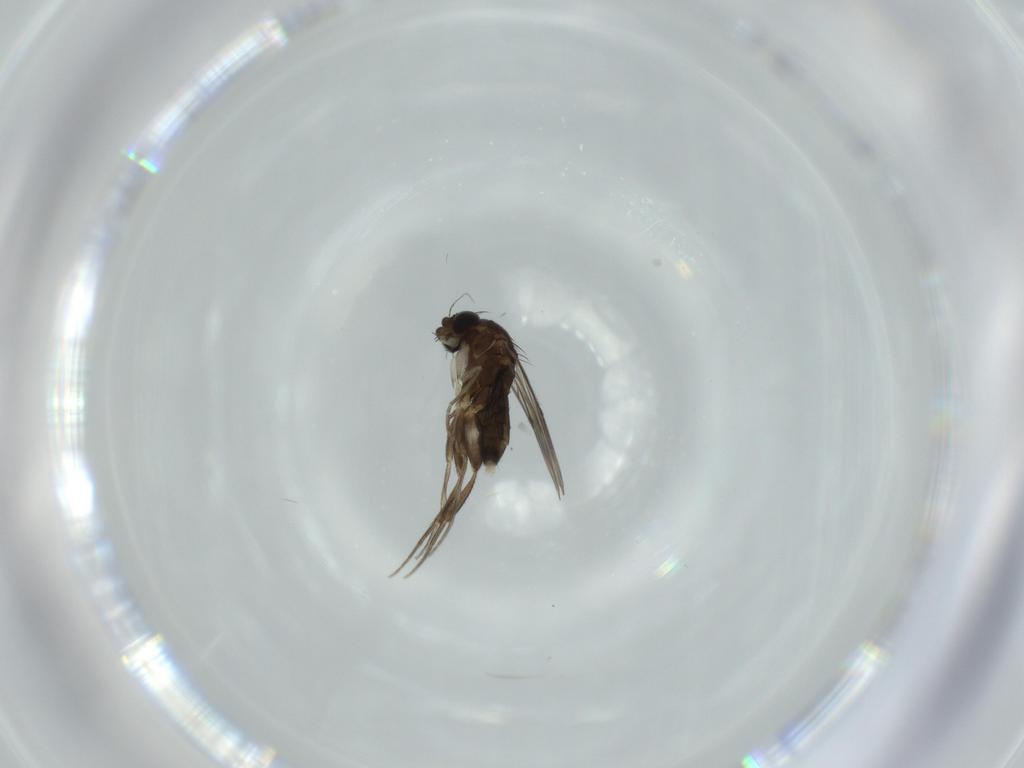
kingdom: Animalia
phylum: Arthropoda
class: Insecta
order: Diptera
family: Phoridae
